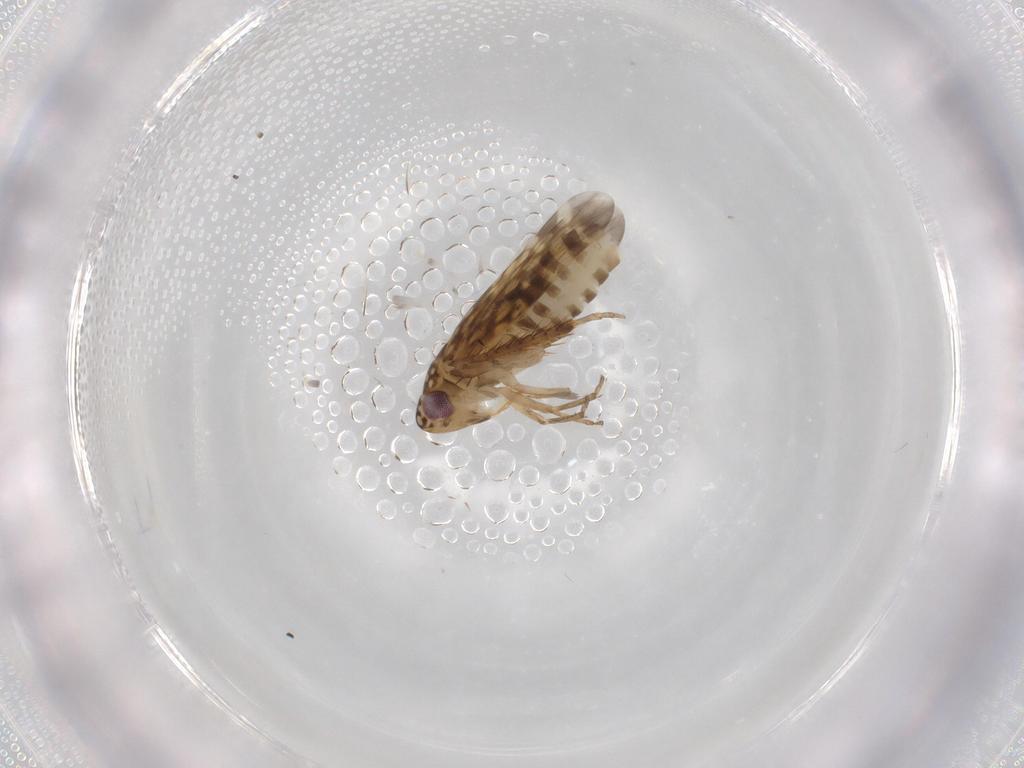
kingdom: Animalia
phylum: Arthropoda
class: Insecta
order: Hemiptera
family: Cicadellidae
